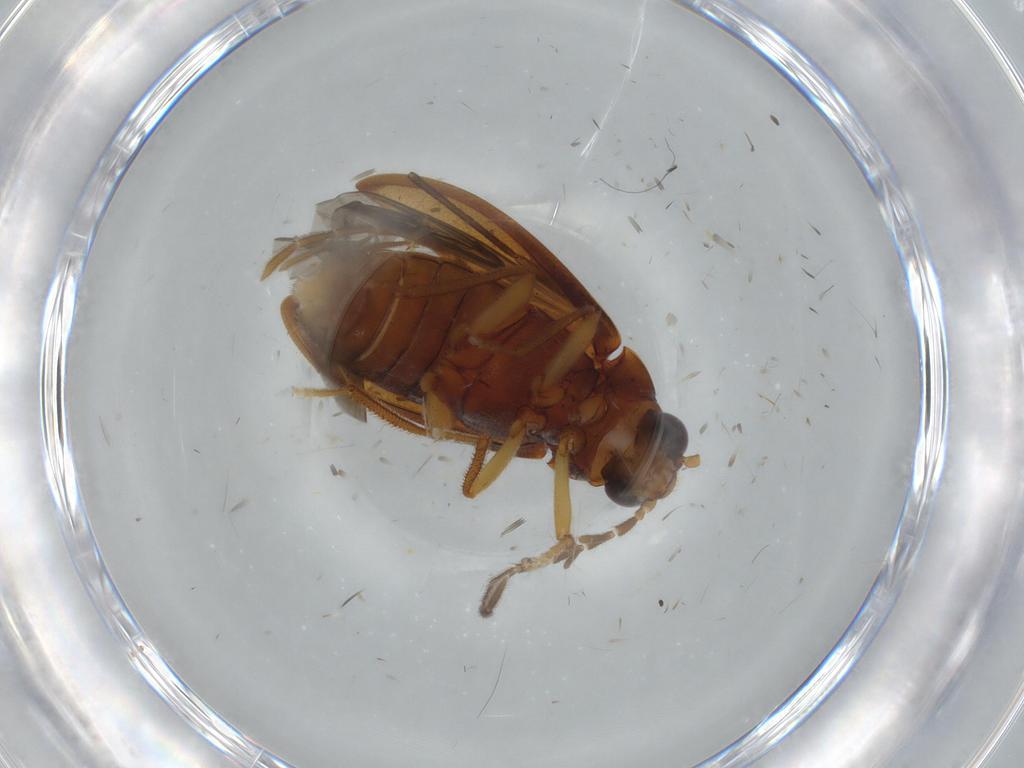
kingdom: Animalia
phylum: Arthropoda
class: Insecta
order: Coleoptera
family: Ptilodactylidae
